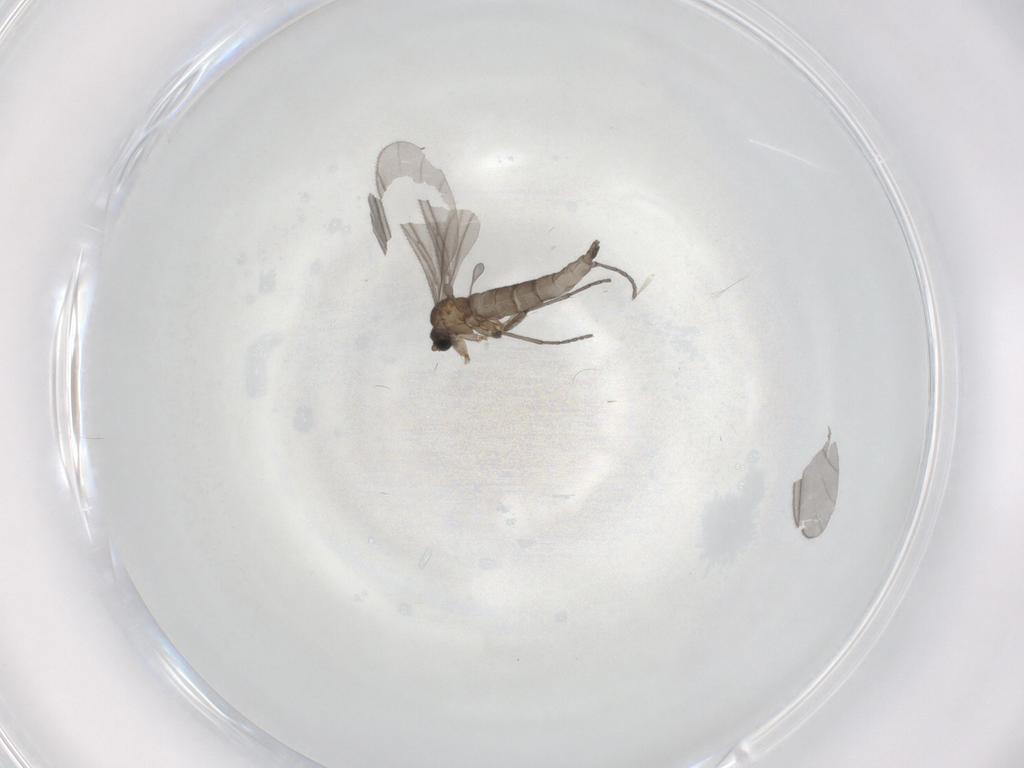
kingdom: Animalia
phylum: Arthropoda
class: Insecta
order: Diptera
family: Sciaridae
